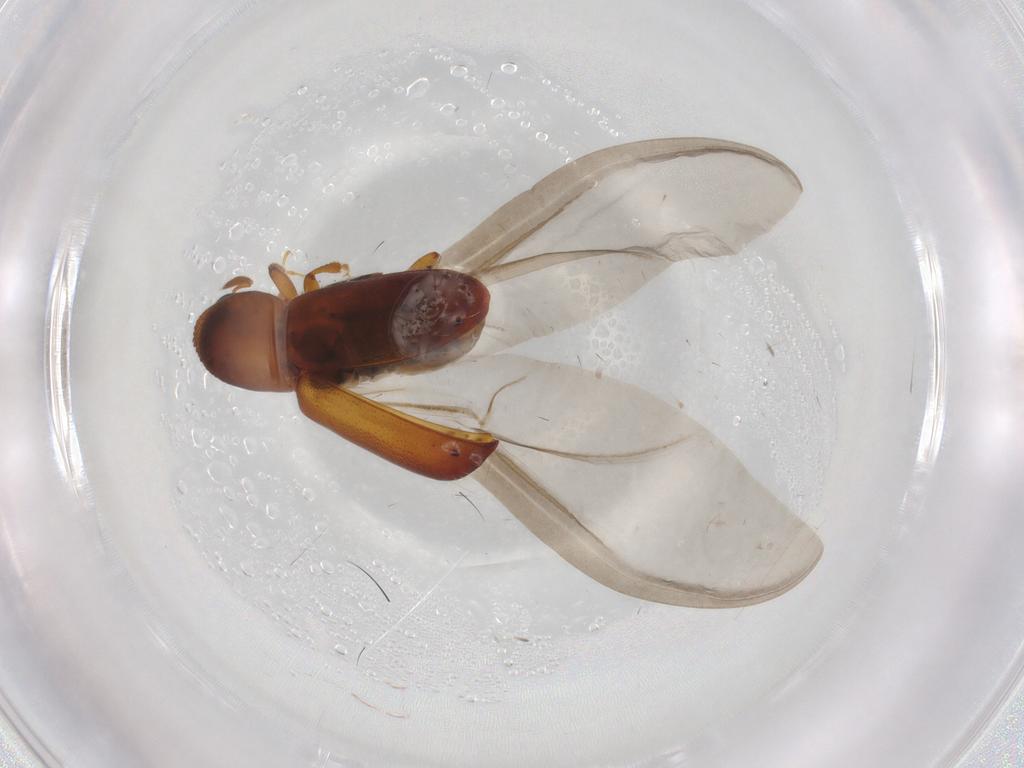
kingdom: Animalia
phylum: Arthropoda
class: Insecta
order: Coleoptera
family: Curculionidae
